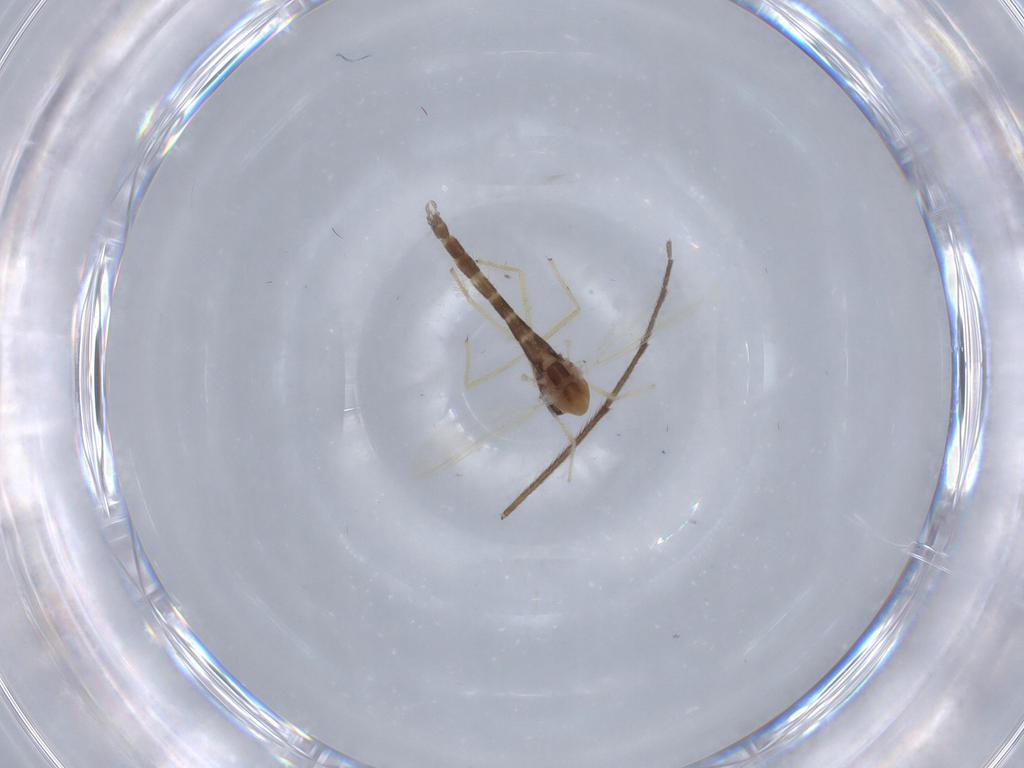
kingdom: Animalia
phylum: Arthropoda
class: Insecta
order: Diptera
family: Chironomidae
